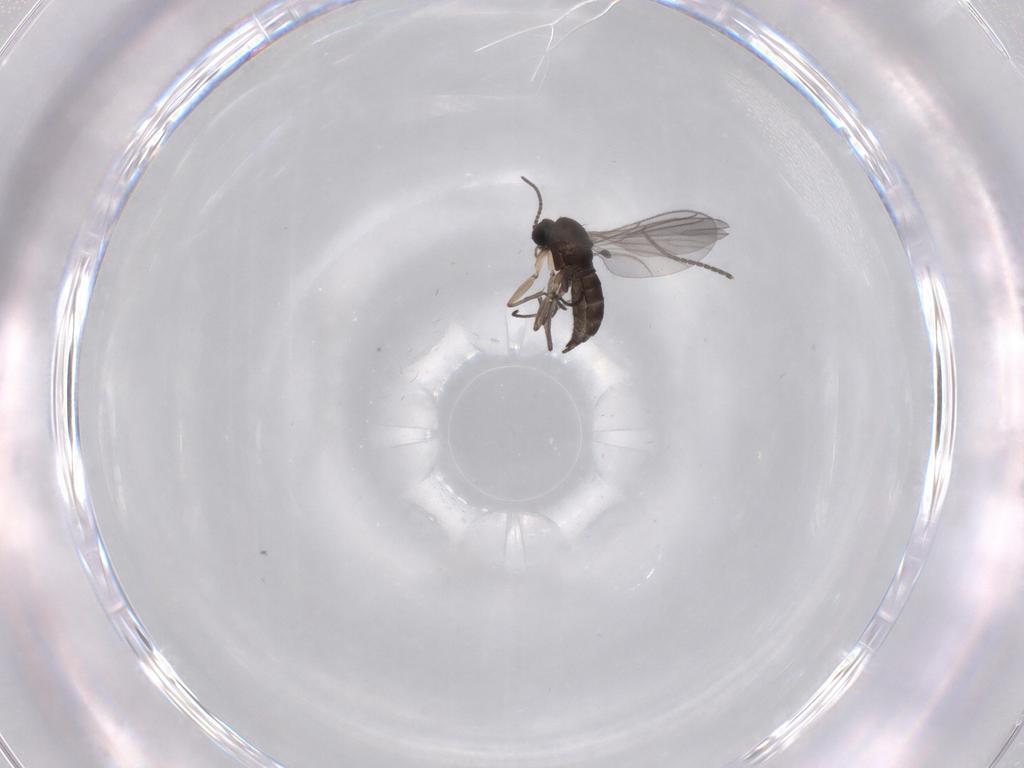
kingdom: Animalia
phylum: Arthropoda
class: Insecta
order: Diptera
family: Sciaridae
